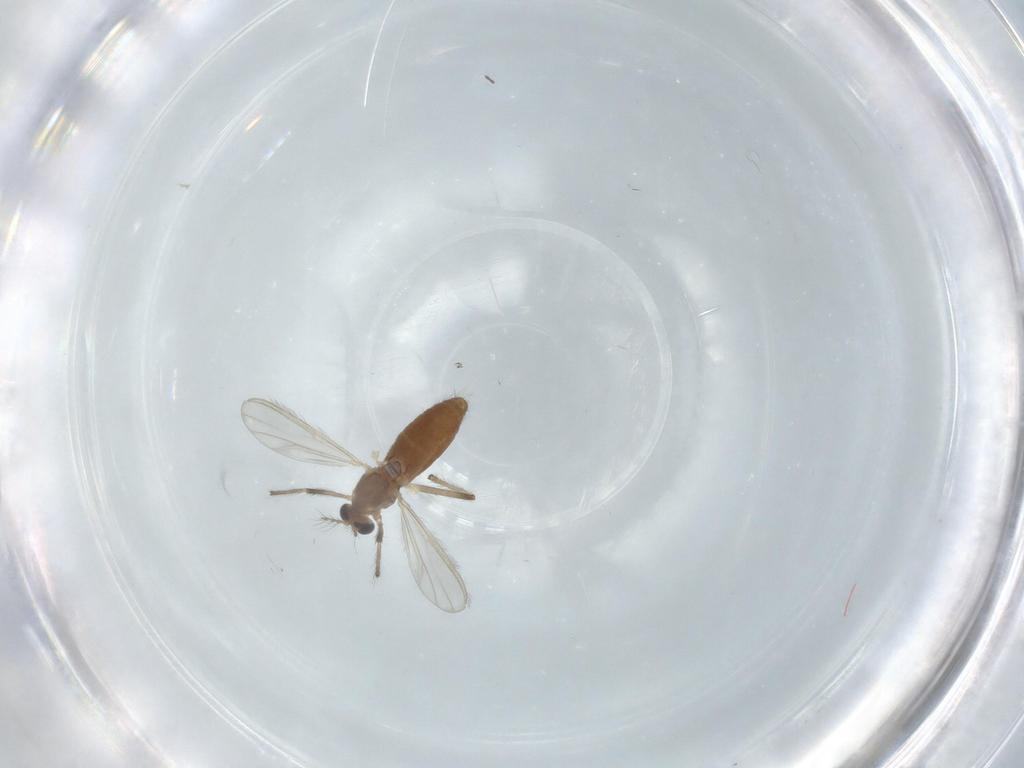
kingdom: Animalia
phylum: Arthropoda
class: Insecta
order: Diptera
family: Chironomidae
